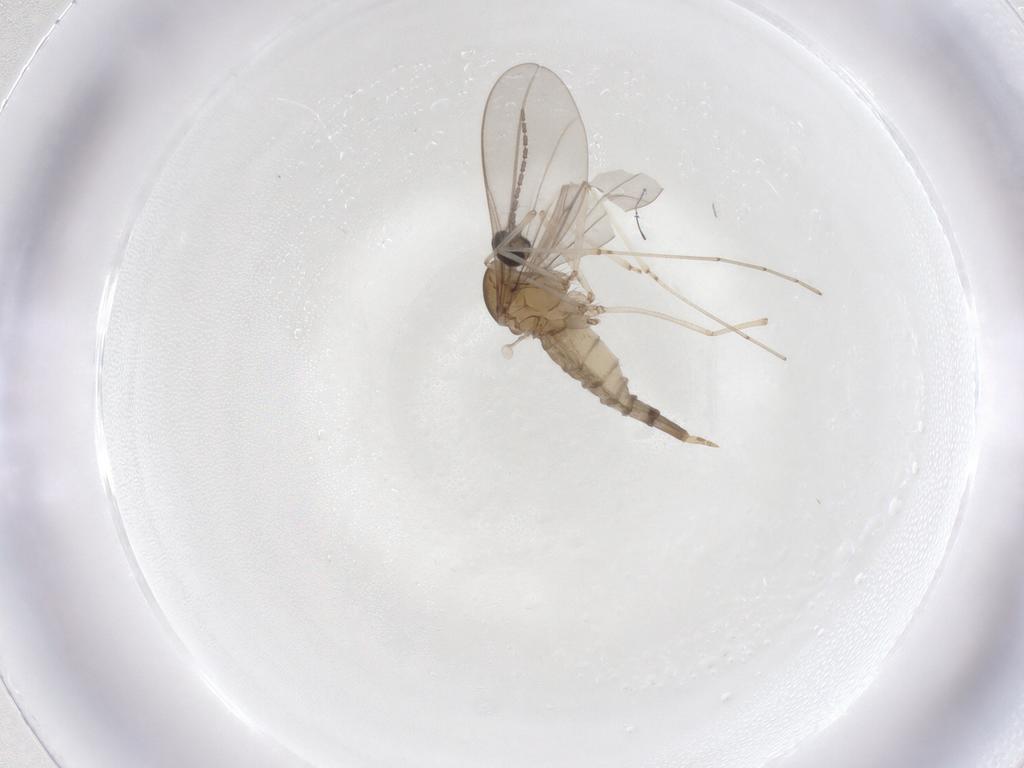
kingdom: Animalia
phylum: Arthropoda
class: Insecta
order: Diptera
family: Cecidomyiidae
